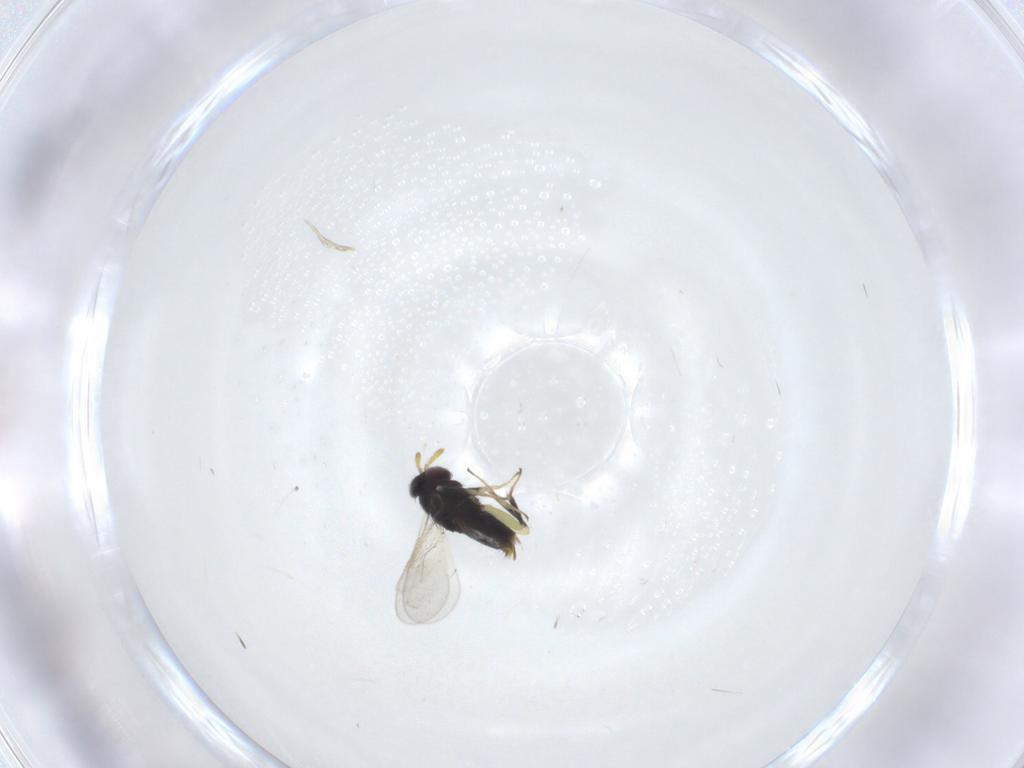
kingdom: Animalia
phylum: Arthropoda
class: Insecta
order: Hymenoptera
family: Aphelinidae
